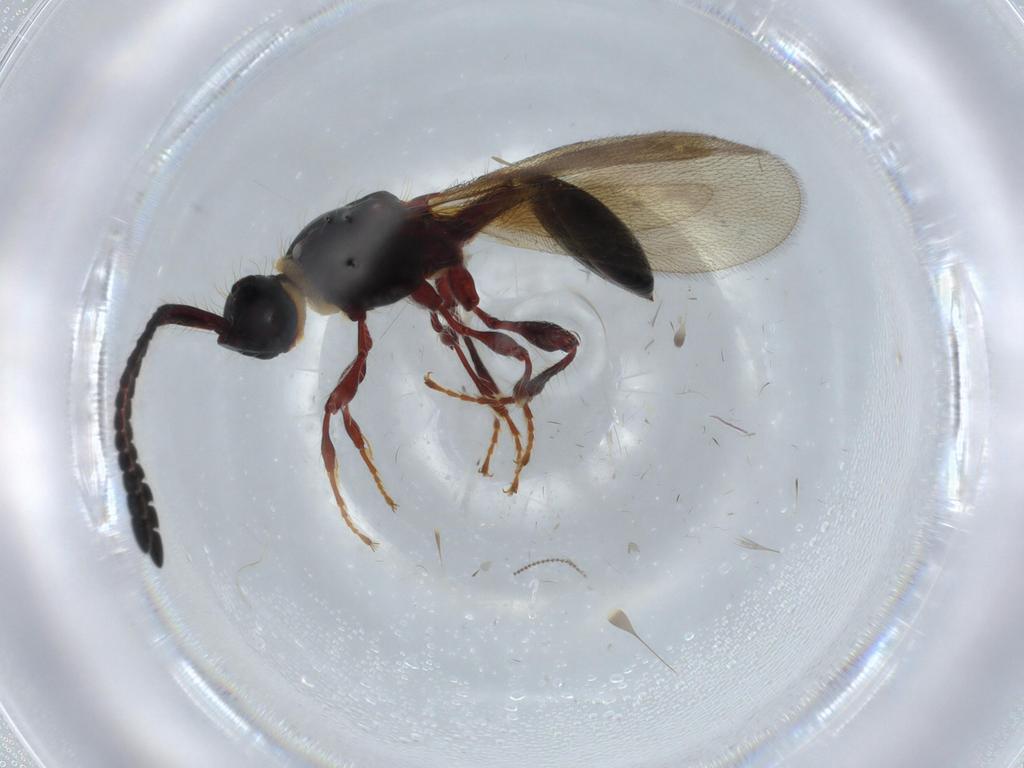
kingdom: Animalia
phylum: Arthropoda
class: Insecta
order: Hymenoptera
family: Diapriidae
